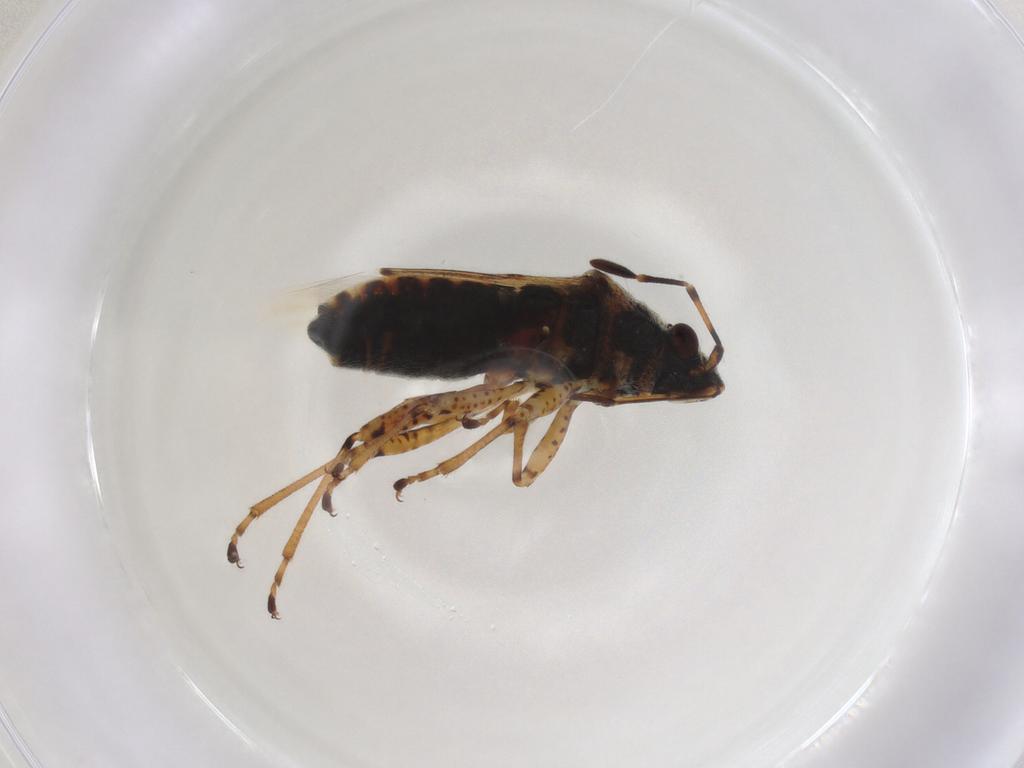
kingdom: Animalia
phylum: Arthropoda
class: Insecta
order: Hemiptera
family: Lygaeidae
